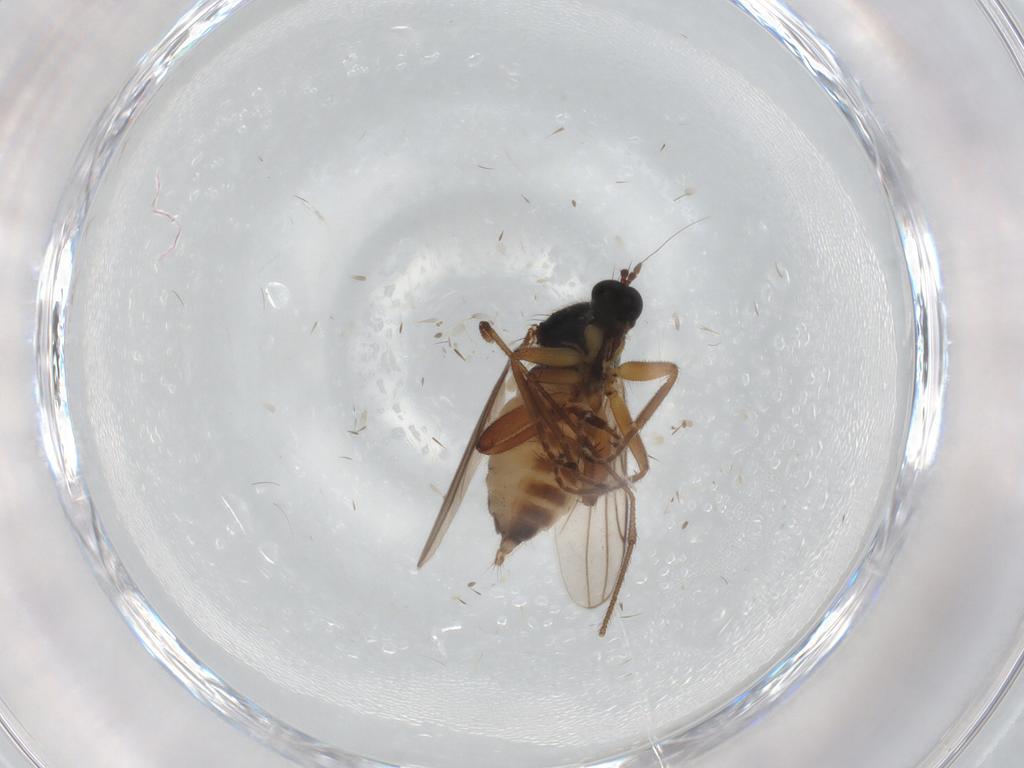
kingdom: Animalia
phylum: Arthropoda
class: Insecta
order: Diptera
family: Hybotidae
